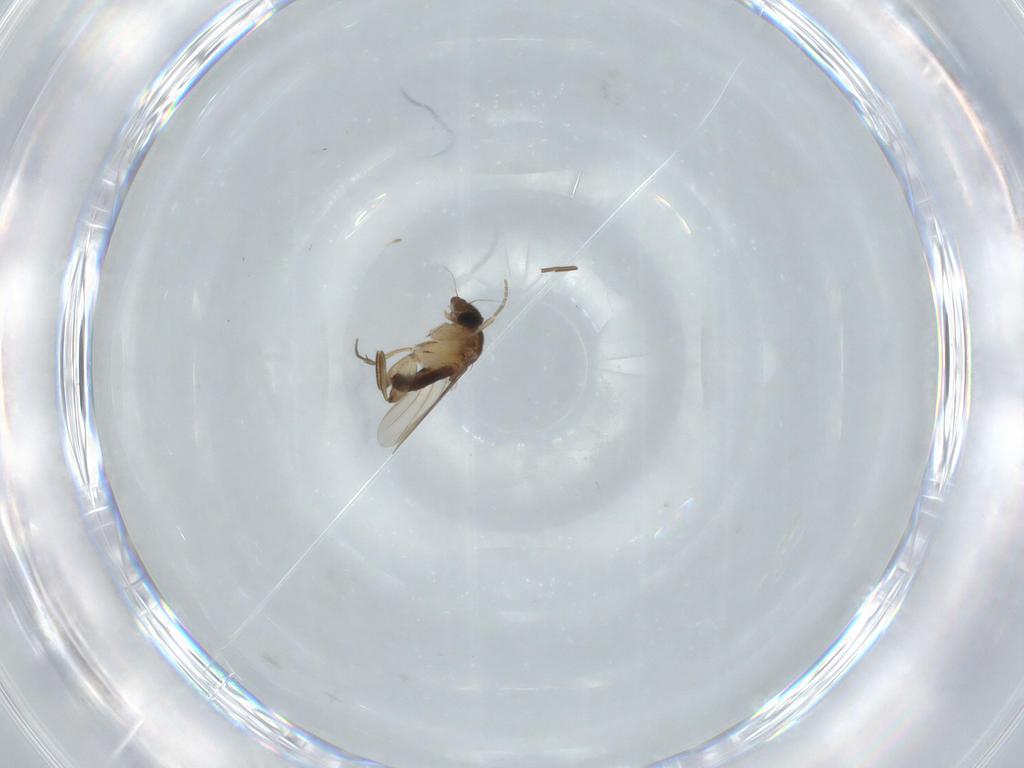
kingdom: Animalia
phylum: Arthropoda
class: Insecta
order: Diptera
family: Phoridae
